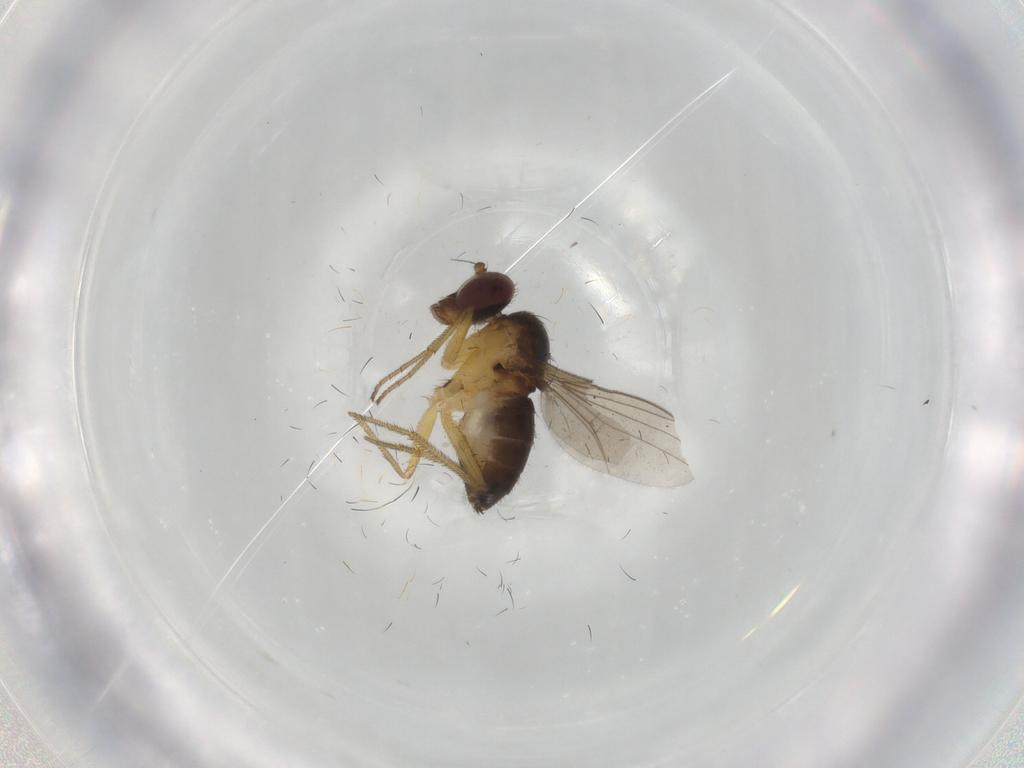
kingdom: Animalia
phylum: Arthropoda
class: Insecta
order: Diptera
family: Dolichopodidae
